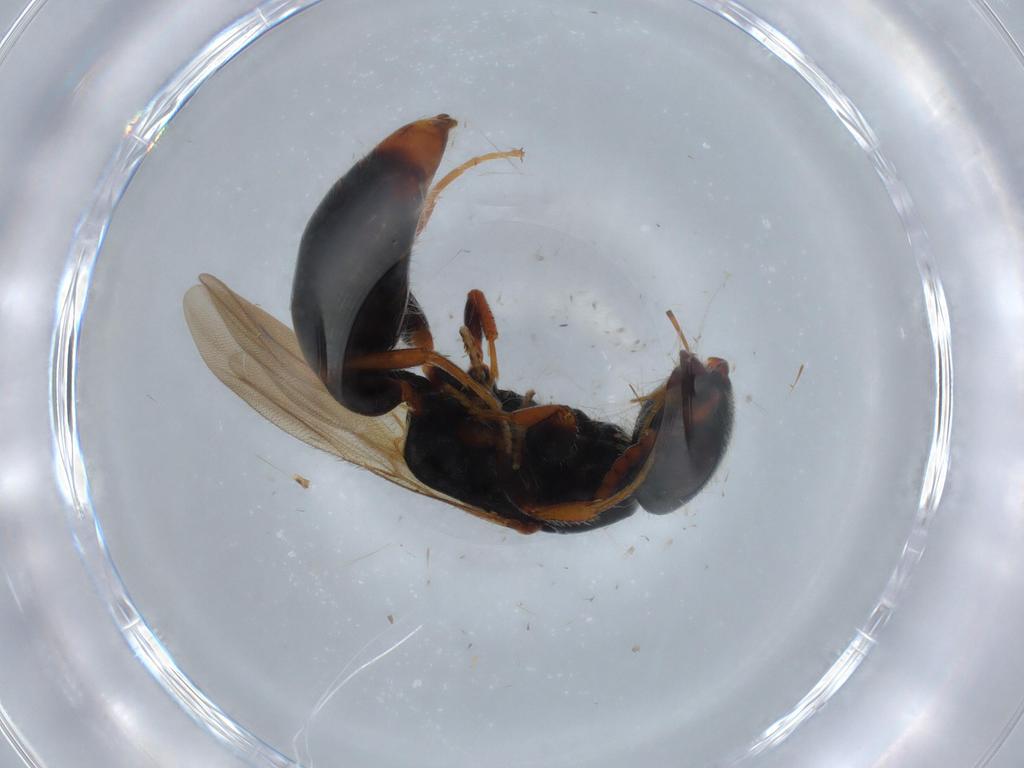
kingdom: Animalia
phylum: Arthropoda
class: Insecta
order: Hymenoptera
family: Bethylidae
